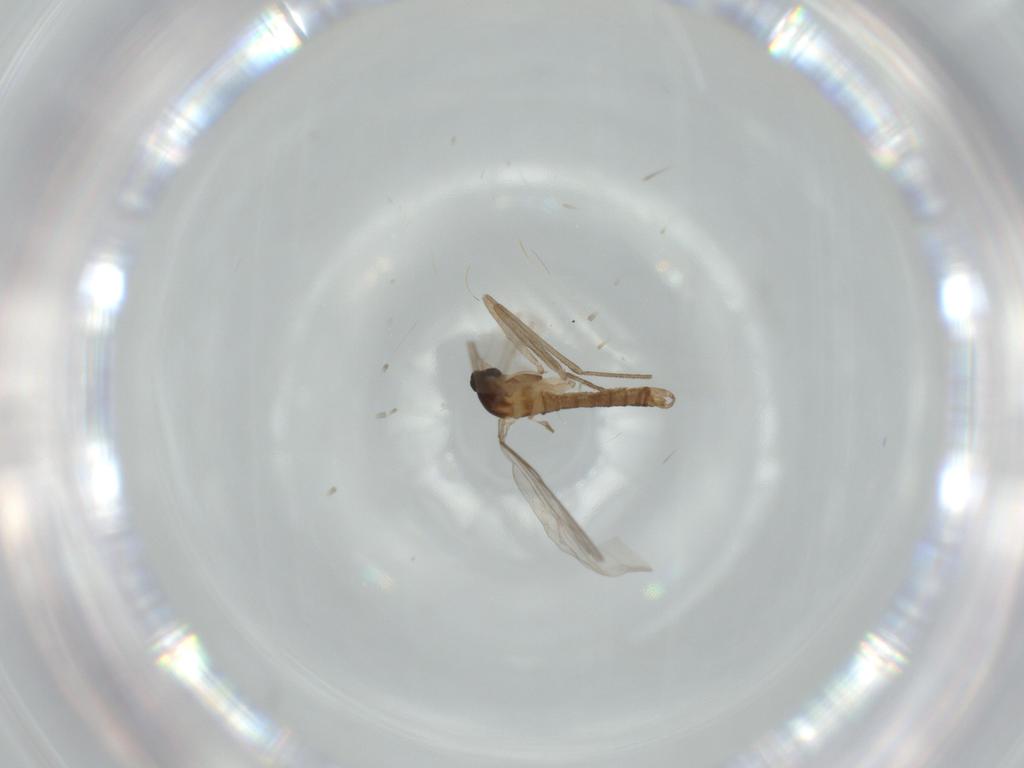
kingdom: Animalia
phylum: Arthropoda
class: Insecta
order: Diptera
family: Cecidomyiidae
